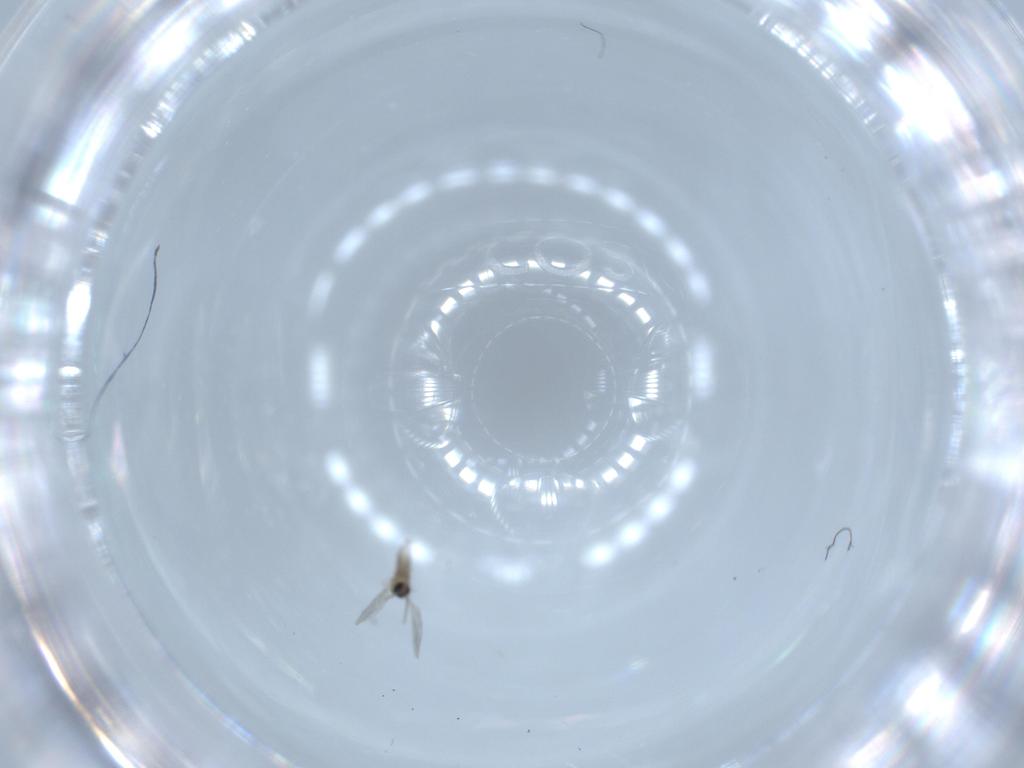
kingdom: Animalia
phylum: Arthropoda
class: Insecta
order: Diptera
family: Cecidomyiidae
